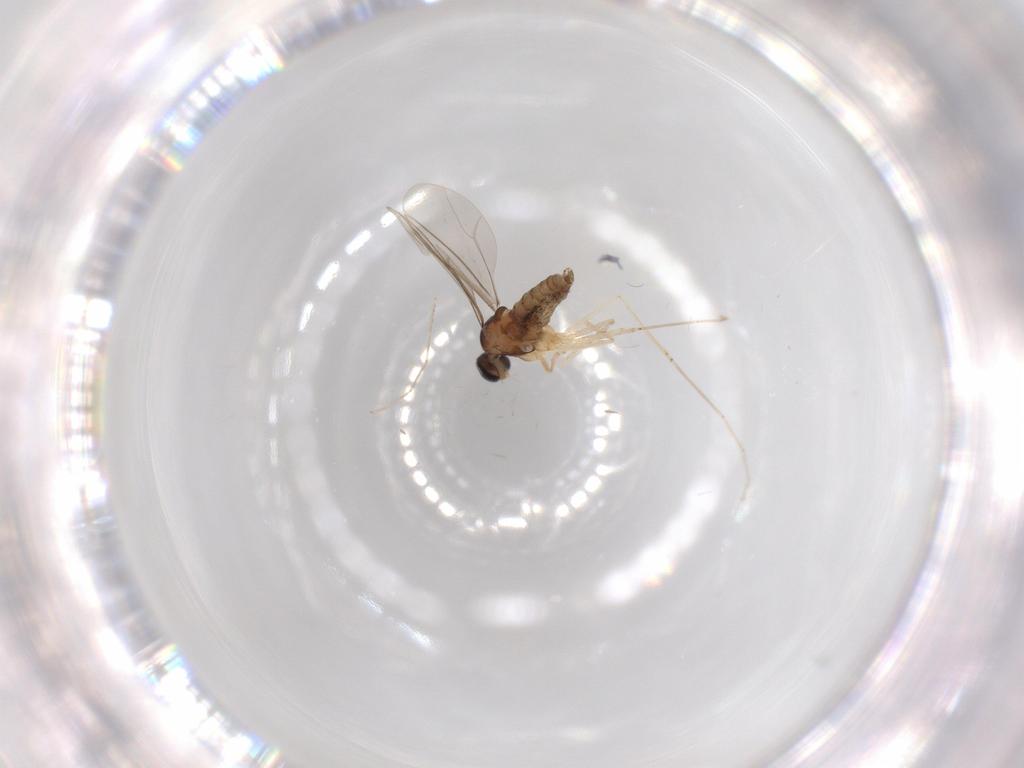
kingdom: Animalia
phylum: Arthropoda
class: Insecta
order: Diptera
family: Cecidomyiidae
